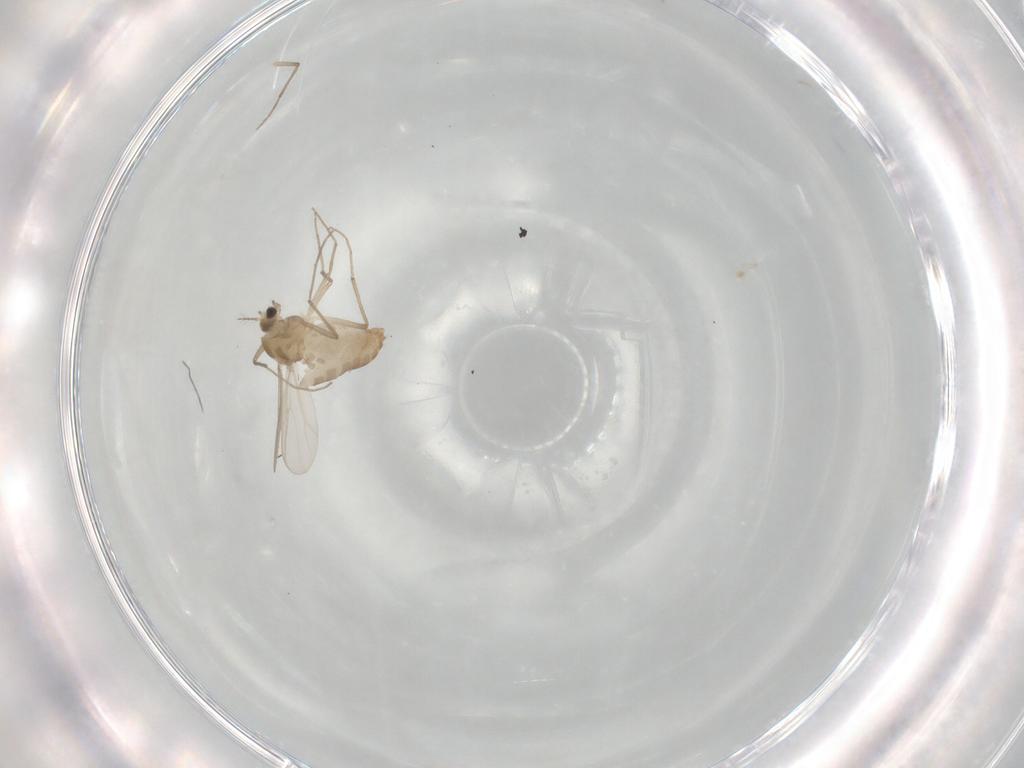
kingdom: Animalia
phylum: Arthropoda
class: Insecta
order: Diptera
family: Chironomidae
